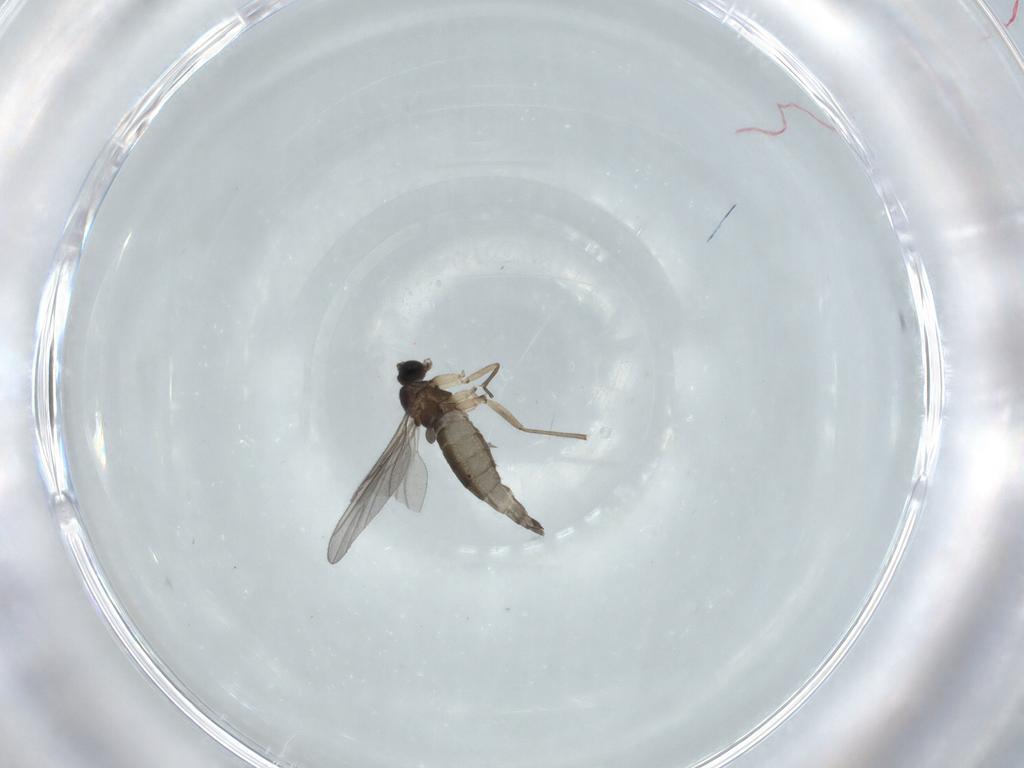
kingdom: Animalia
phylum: Arthropoda
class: Insecta
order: Diptera
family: Sciaridae
